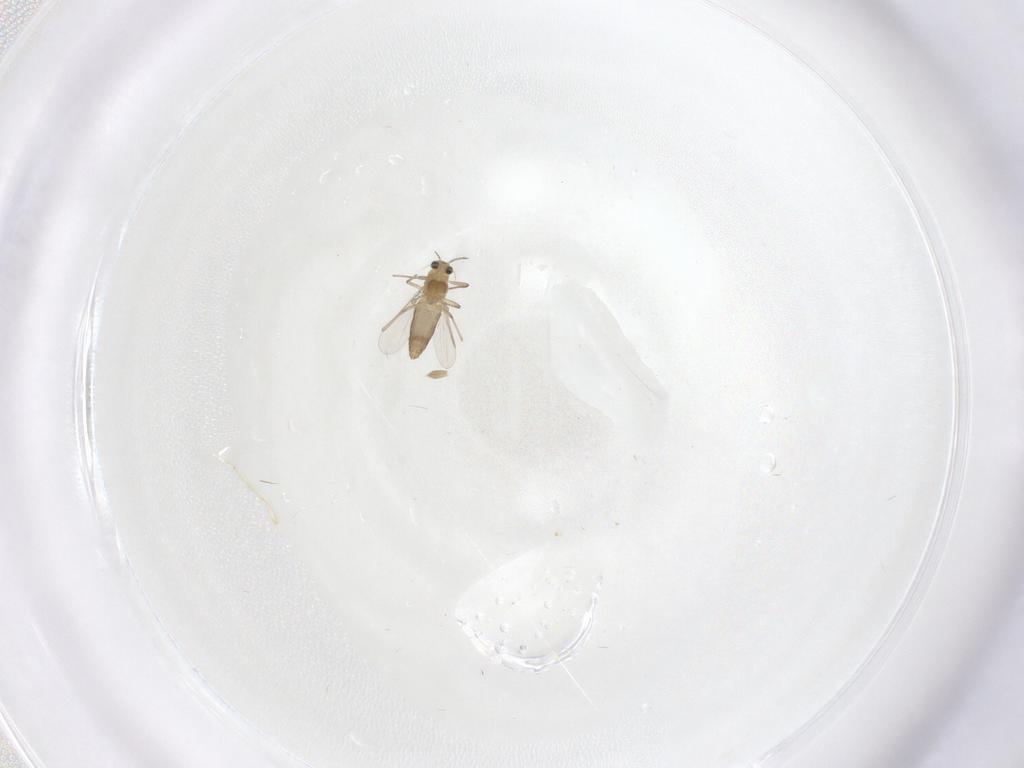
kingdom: Animalia
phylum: Arthropoda
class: Insecta
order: Diptera
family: Chironomidae
